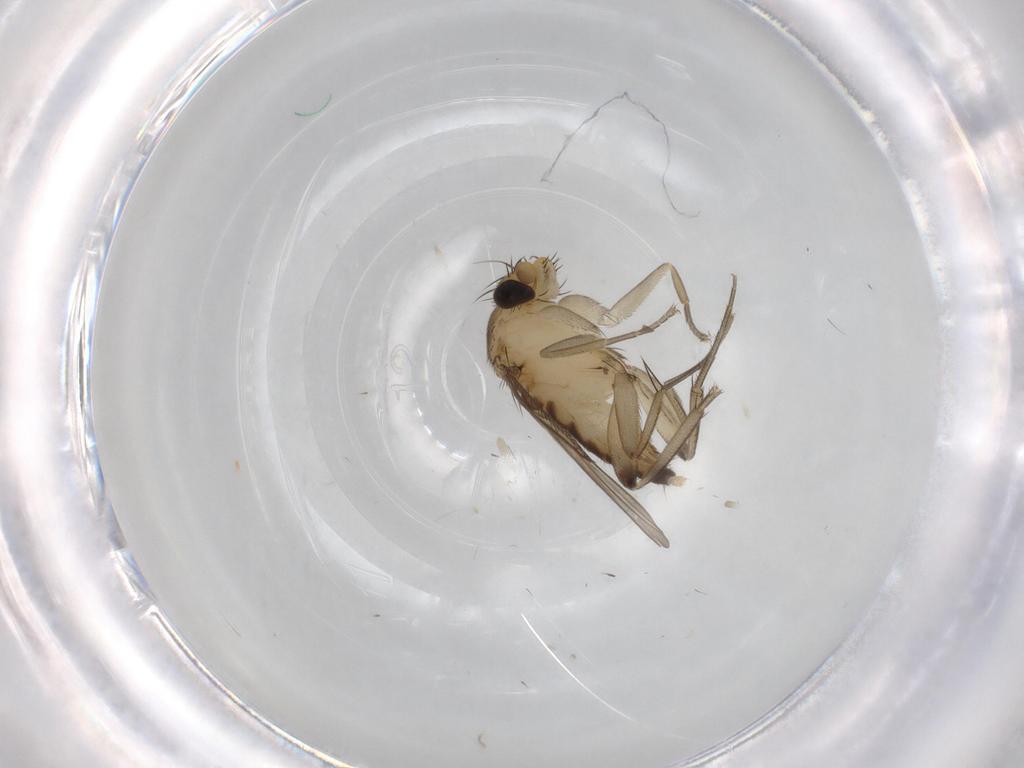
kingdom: Animalia
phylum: Arthropoda
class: Insecta
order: Diptera
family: Phoridae
